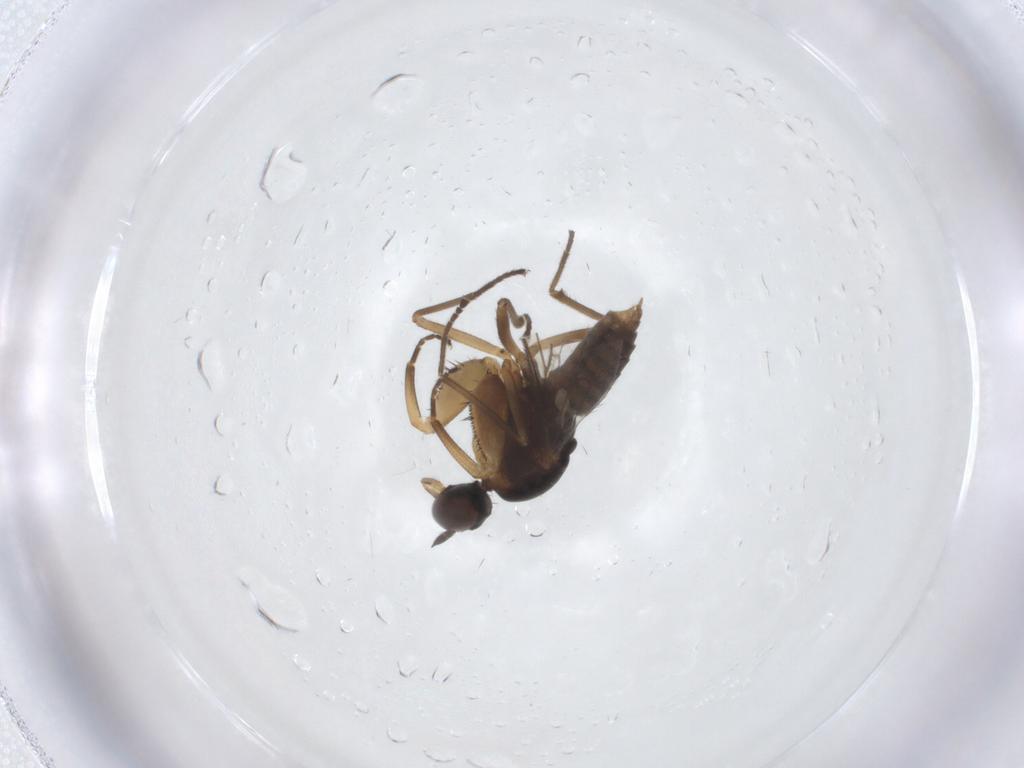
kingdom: Animalia
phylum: Arthropoda
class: Insecta
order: Diptera
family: Empididae
